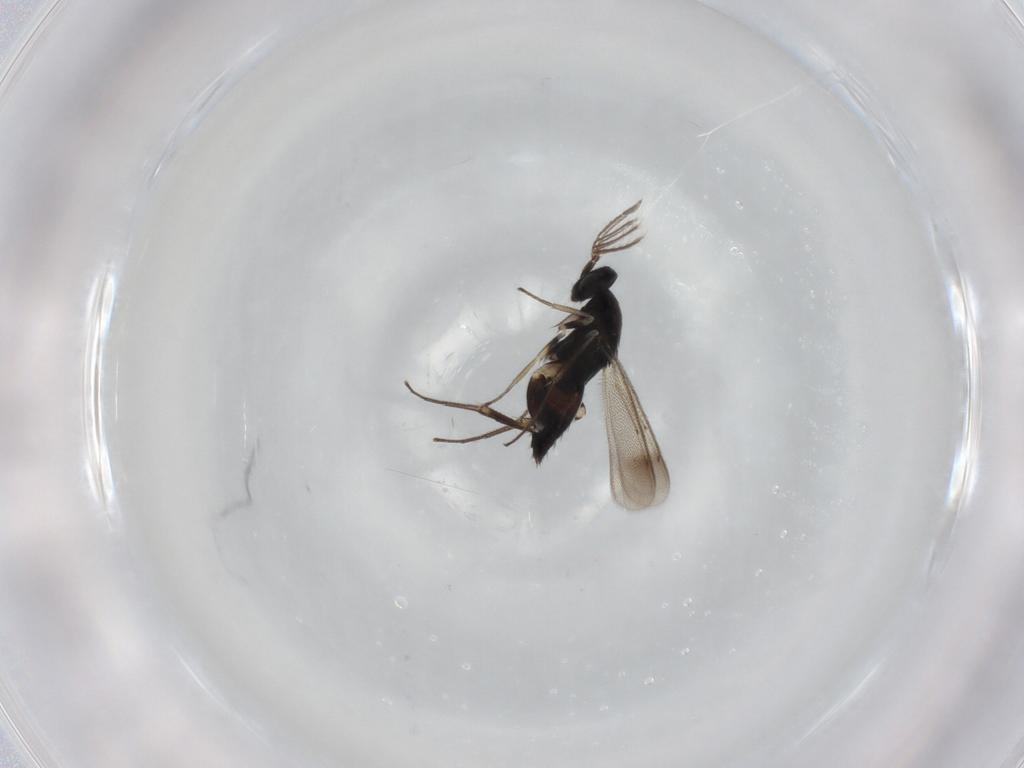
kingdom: Animalia
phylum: Arthropoda
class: Insecta
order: Hymenoptera
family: Eulophidae
